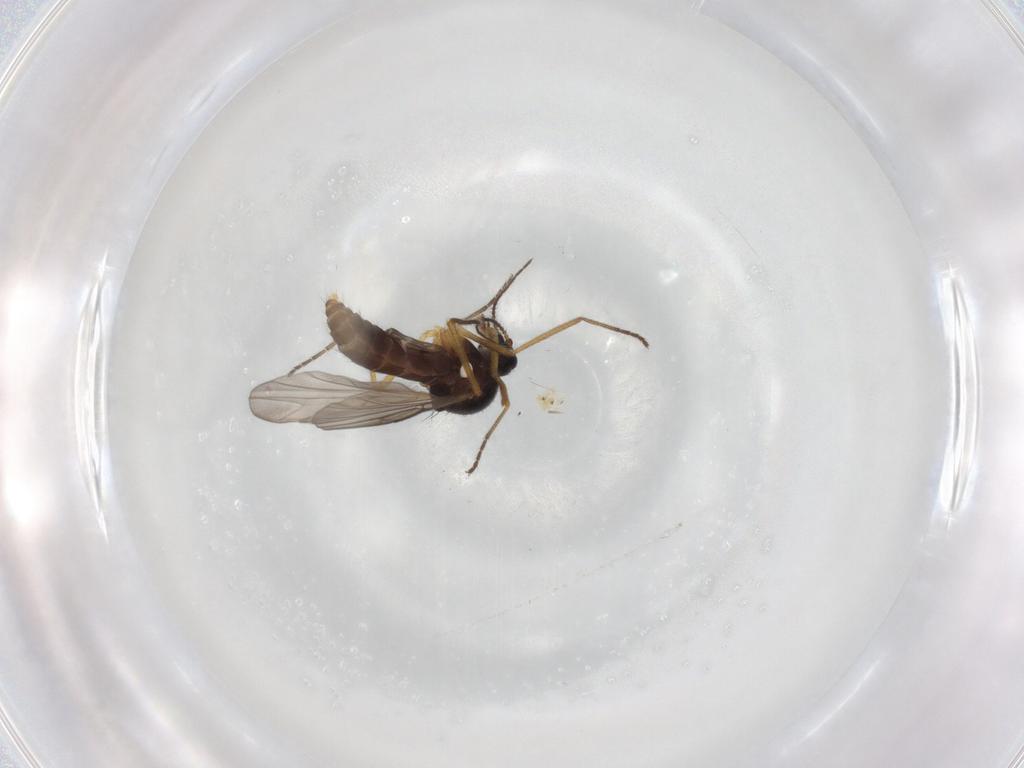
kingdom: Animalia
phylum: Arthropoda
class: Insecta
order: Diptera
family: Ceratopogonidae
